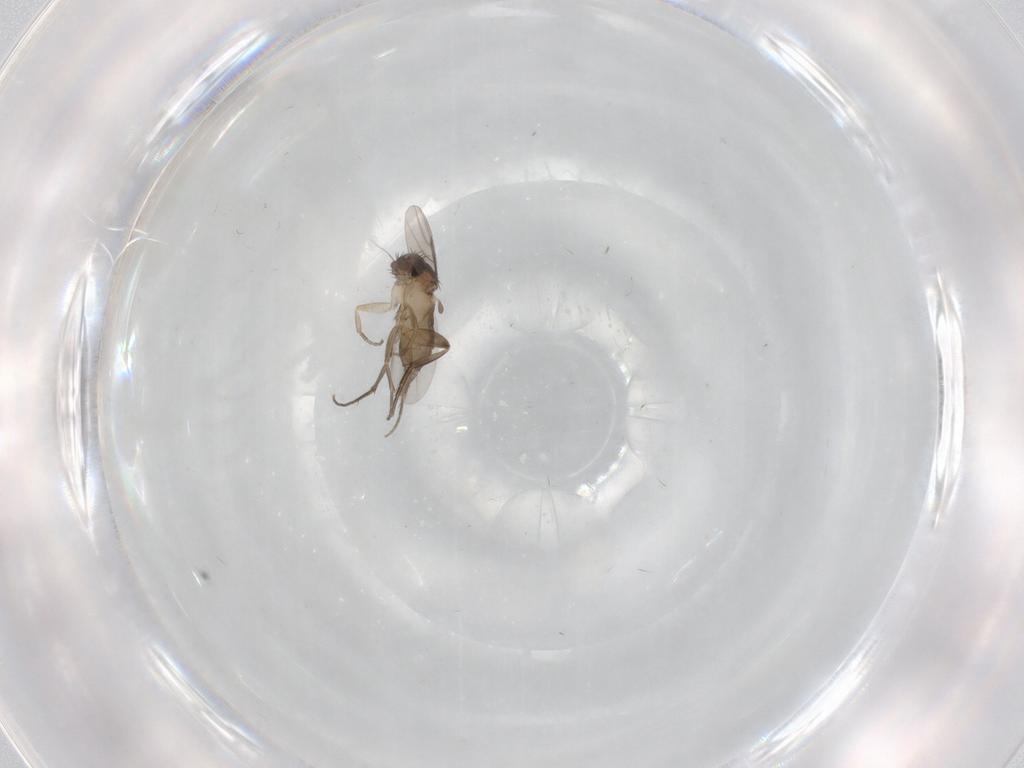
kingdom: Animalia
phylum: Arthropoda
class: Insecta
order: Diptera
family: Phoridae
